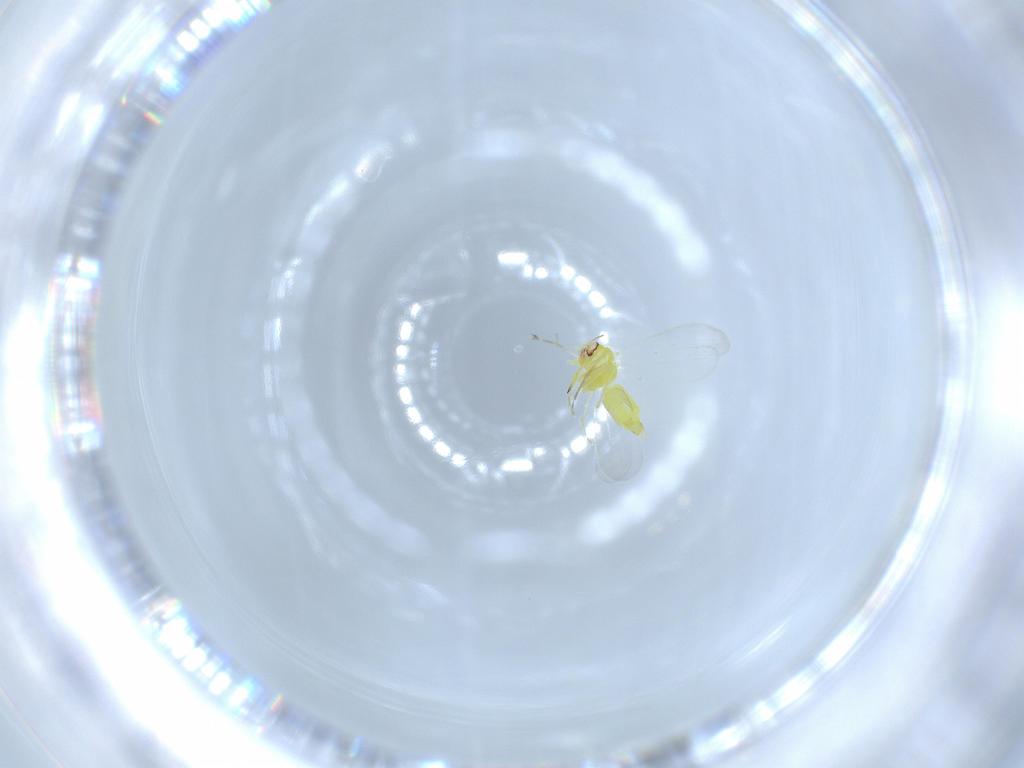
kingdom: Animalia
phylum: Arthropoda
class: Insecta
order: Hemiptera
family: Aleyrodidae
